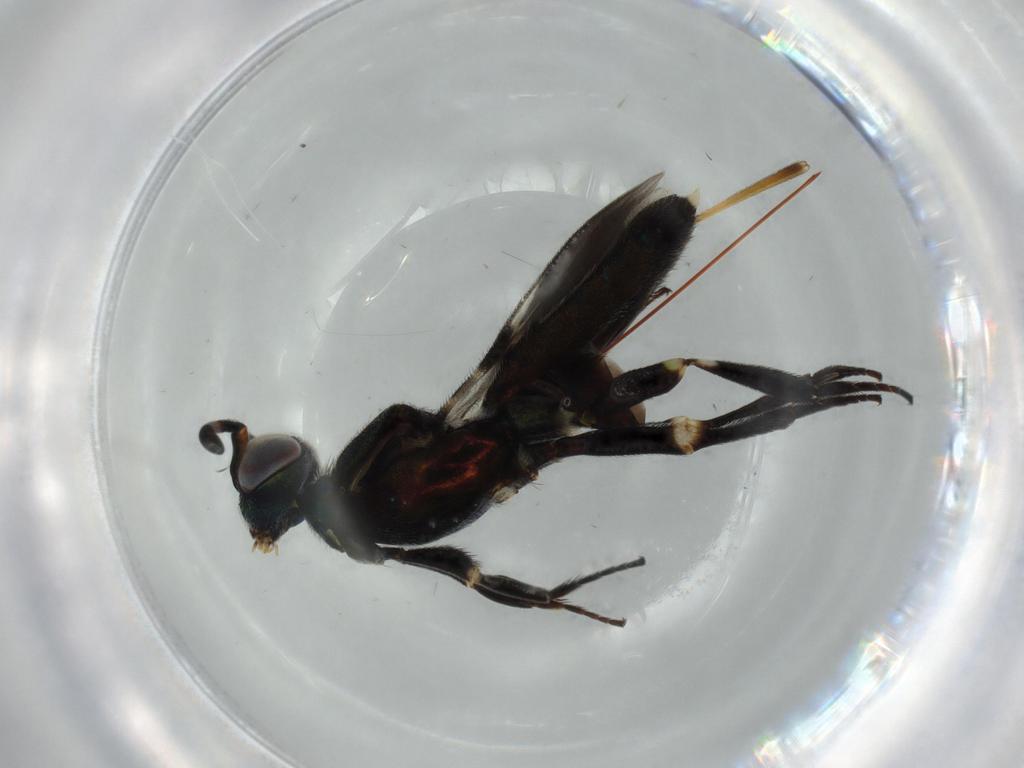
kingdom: Animalia
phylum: Arthropoda
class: Insecta
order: Hymenoptera
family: Eupelmidae
